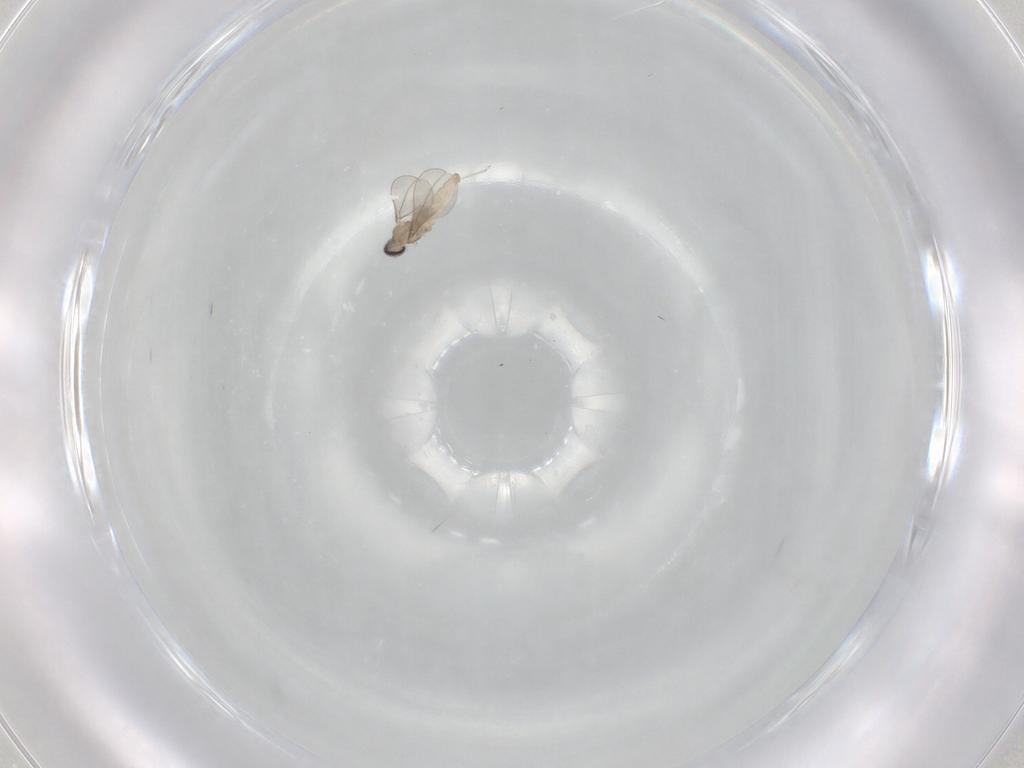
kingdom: Animalia
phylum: Arthropoda
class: Insecta
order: Diptera
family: Cecidomyiidae
